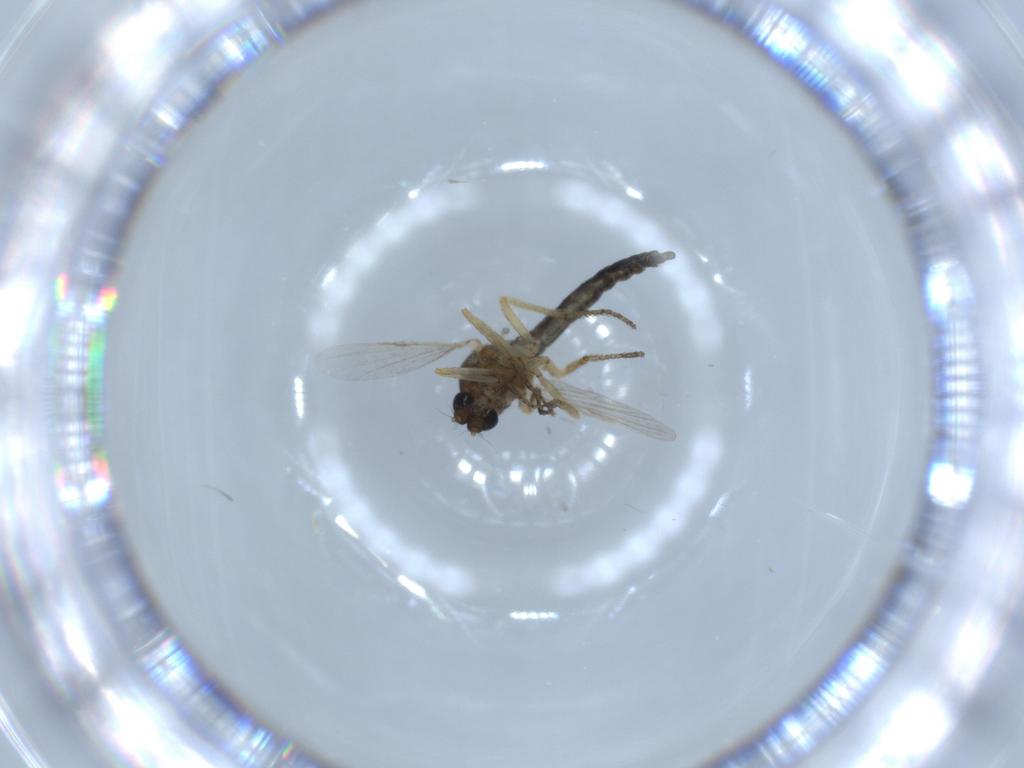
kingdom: Animalia
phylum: Arthropoda
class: Insecta
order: Diptera
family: Ceratopogonidae
